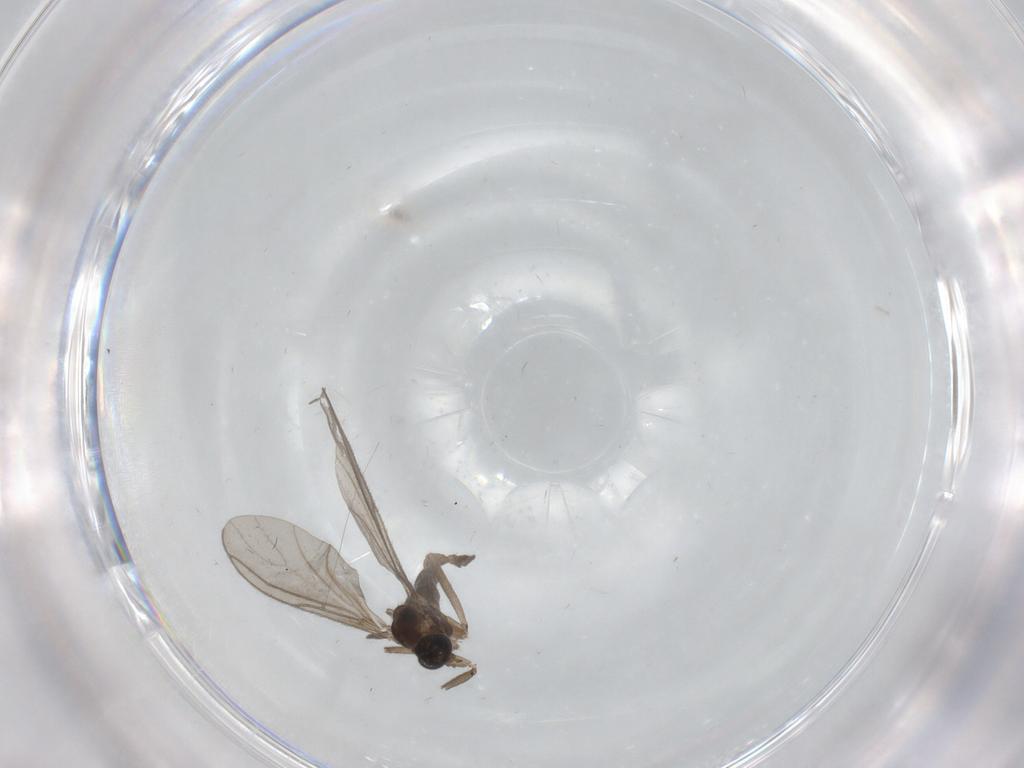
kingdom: Animalia
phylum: Arthropoda
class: Insecta
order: Diptera
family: Sciaridae
